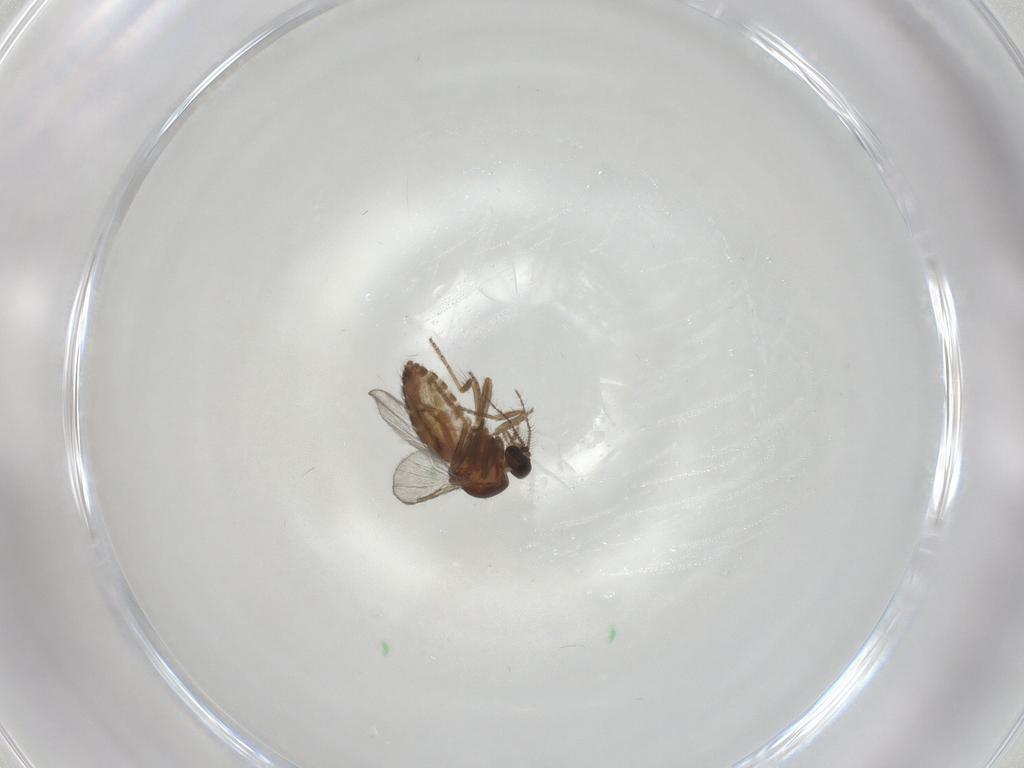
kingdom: Animalia
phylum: Arthropoda
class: Insecta
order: Diptera
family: Ceratopogonidae
